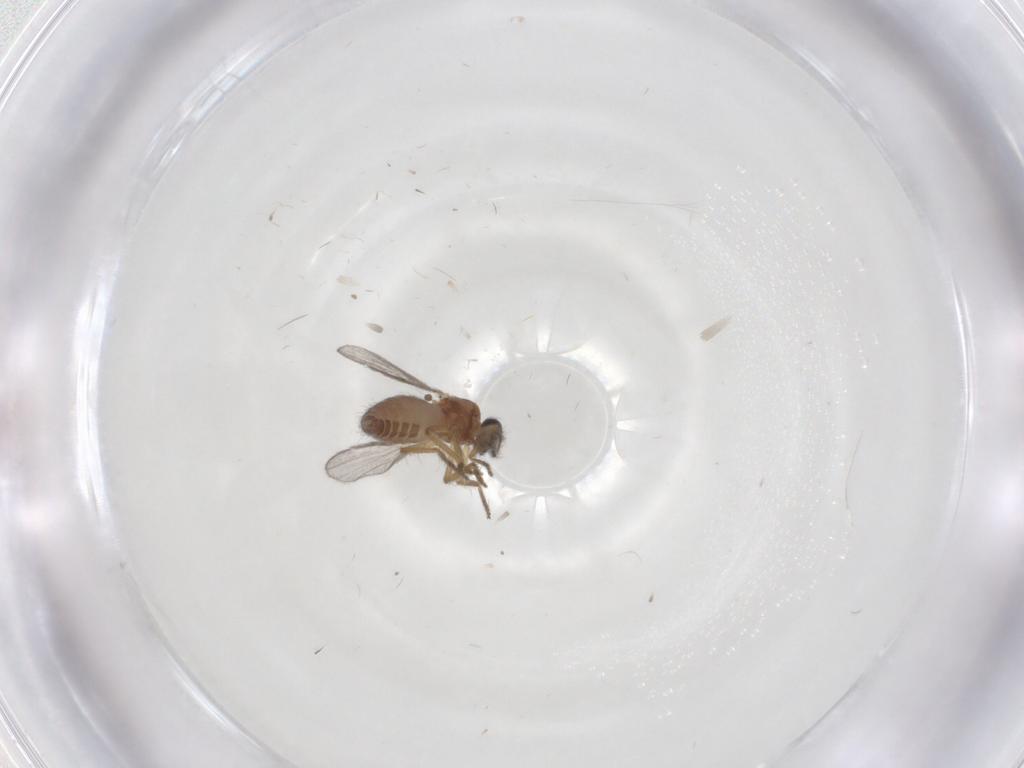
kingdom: Animalia
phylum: Arthropoda
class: Insecta
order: Diptera
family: Ceratopogonidae
